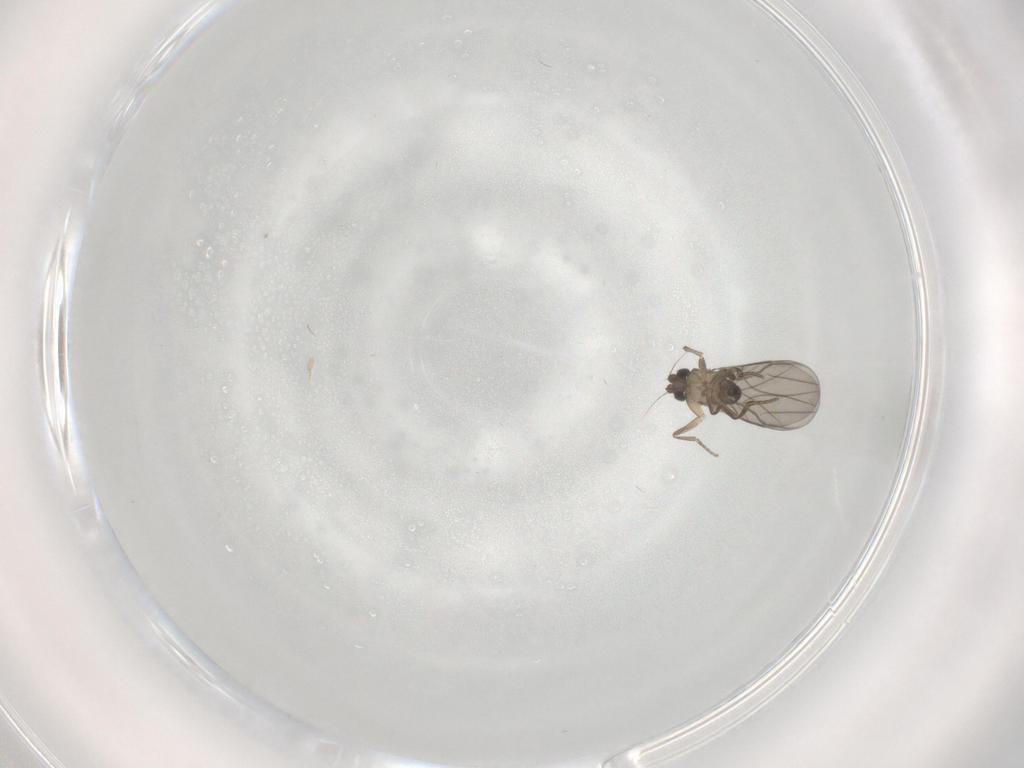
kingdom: Animalia
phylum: Arthropoda
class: Insecta
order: Diptera
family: Phoridae
